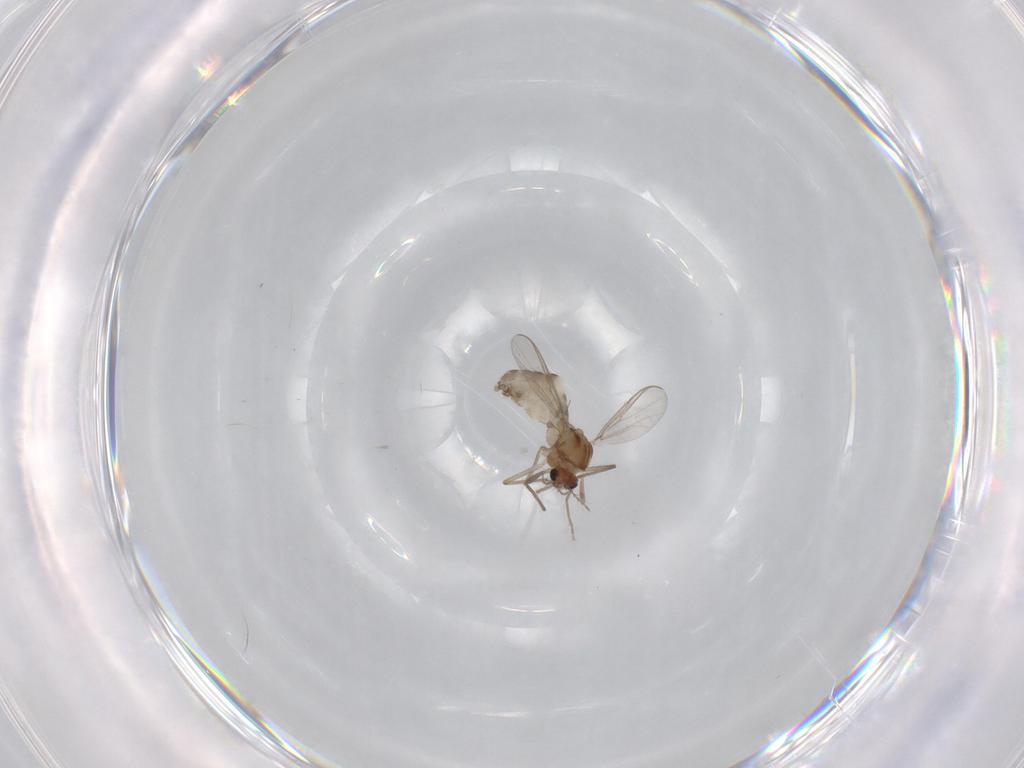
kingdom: Animalia
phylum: Arthropoda
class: Insecta
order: Diptera
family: Chironomidae
